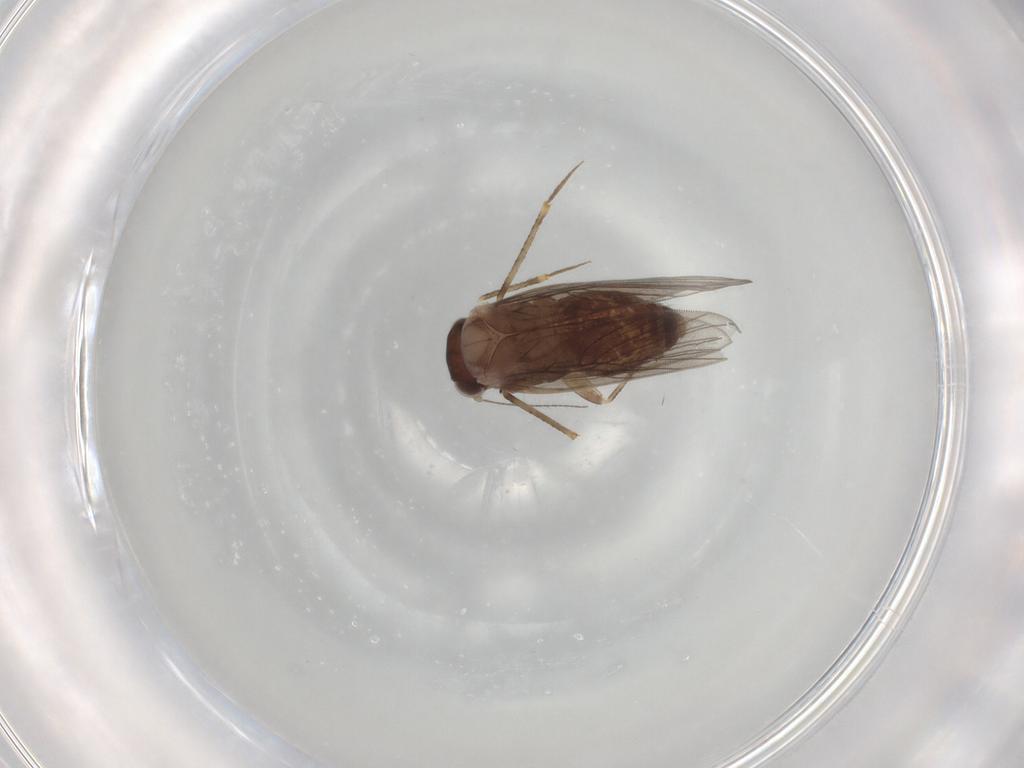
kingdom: Animalia
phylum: Arthropoda
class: Insecta
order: Psocodea
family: Lepidopsocidae
